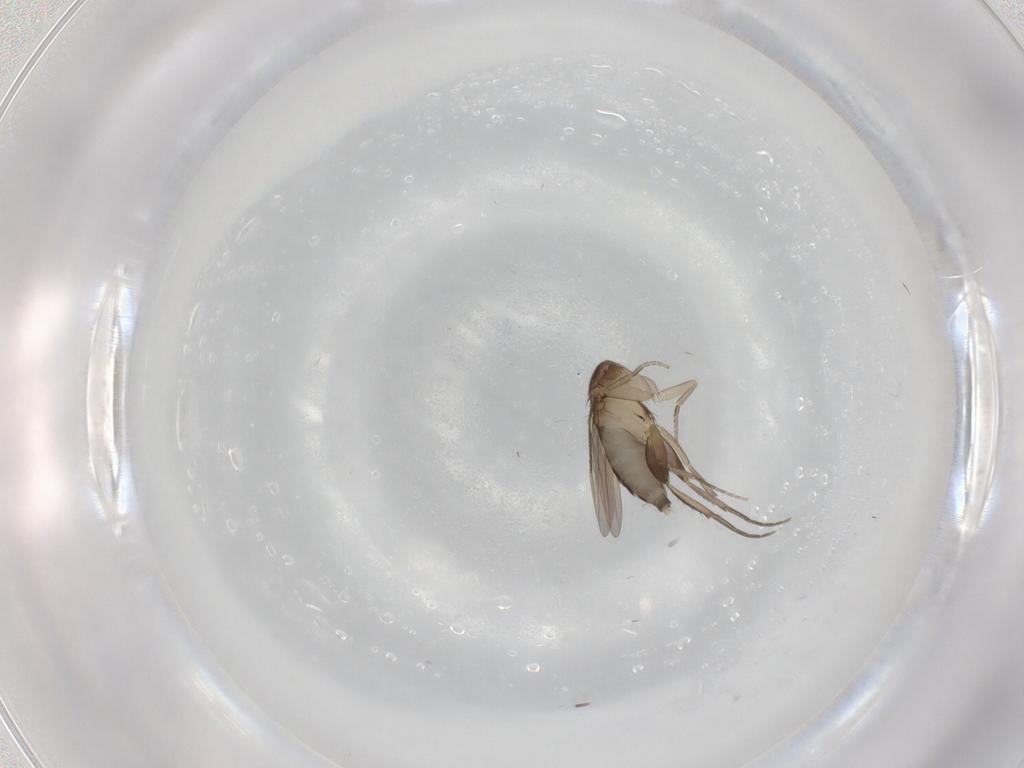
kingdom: Animalia
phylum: Arthropoda
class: Insecta
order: Diptera
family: Phoridae
